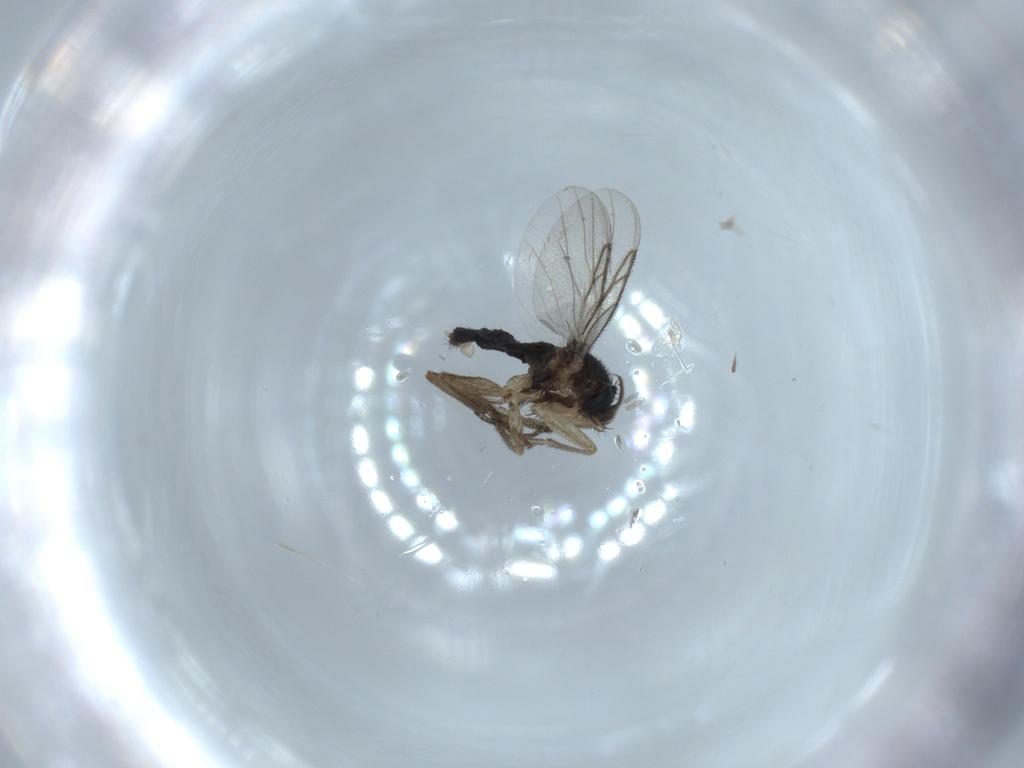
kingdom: Animalia
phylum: Arthropoda
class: Insecta
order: Diptera
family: Phoridae
